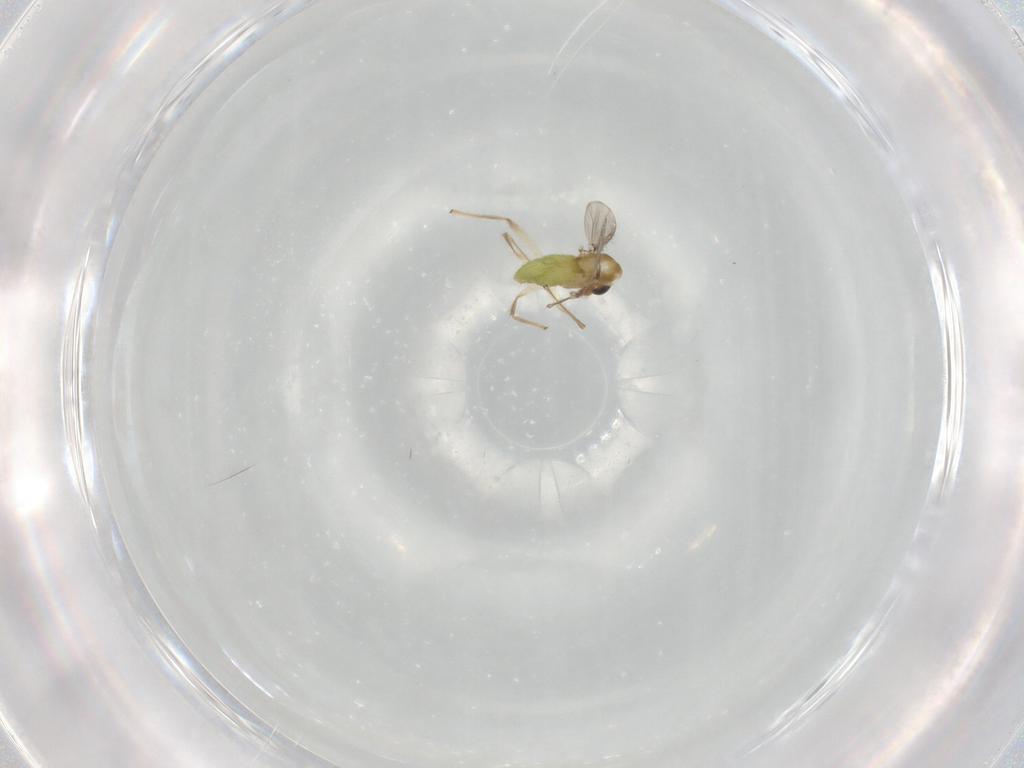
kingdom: Animalia
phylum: Arthropoda
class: Insecta
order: Diptera
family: Chironomidae
